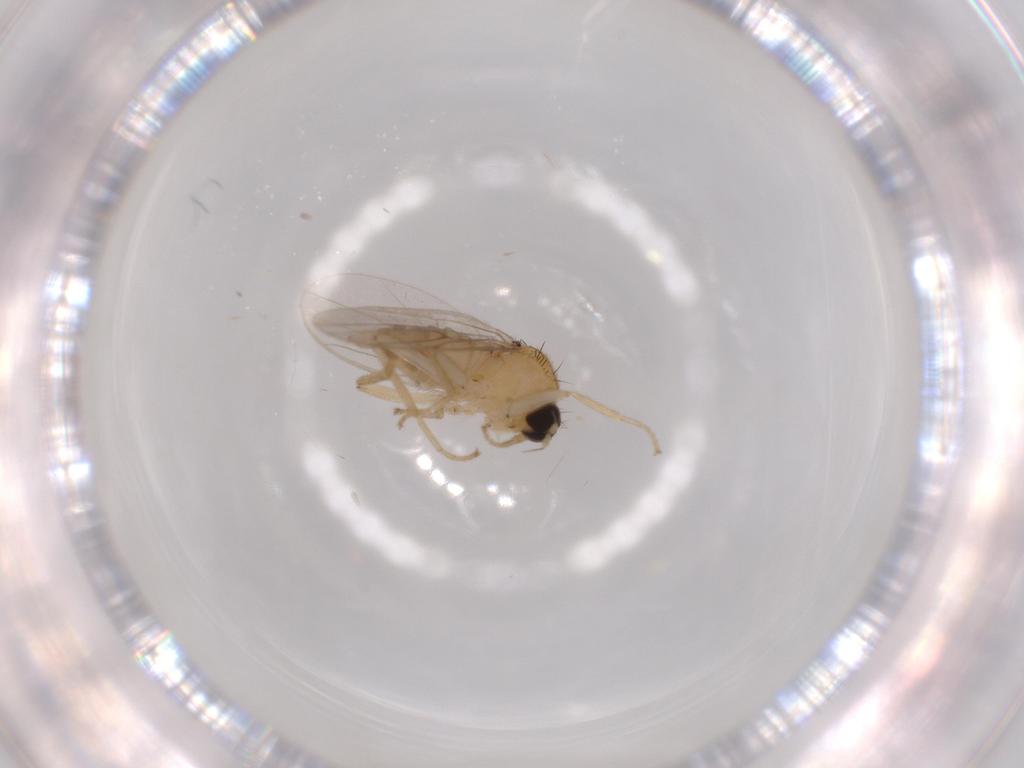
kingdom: Animalia
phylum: Arthropoda
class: Insecta
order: Diptera
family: Hybotidae
